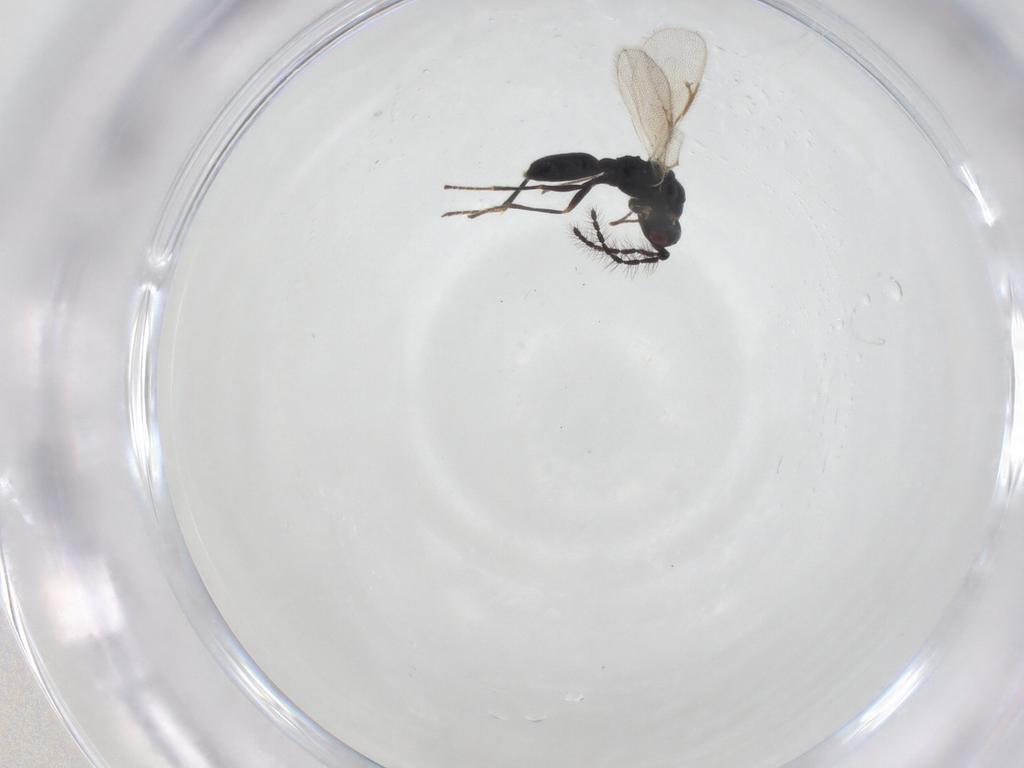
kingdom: Animalia
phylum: Arthropoda
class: Insecta
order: Hymenoptera
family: Eurytomidae
